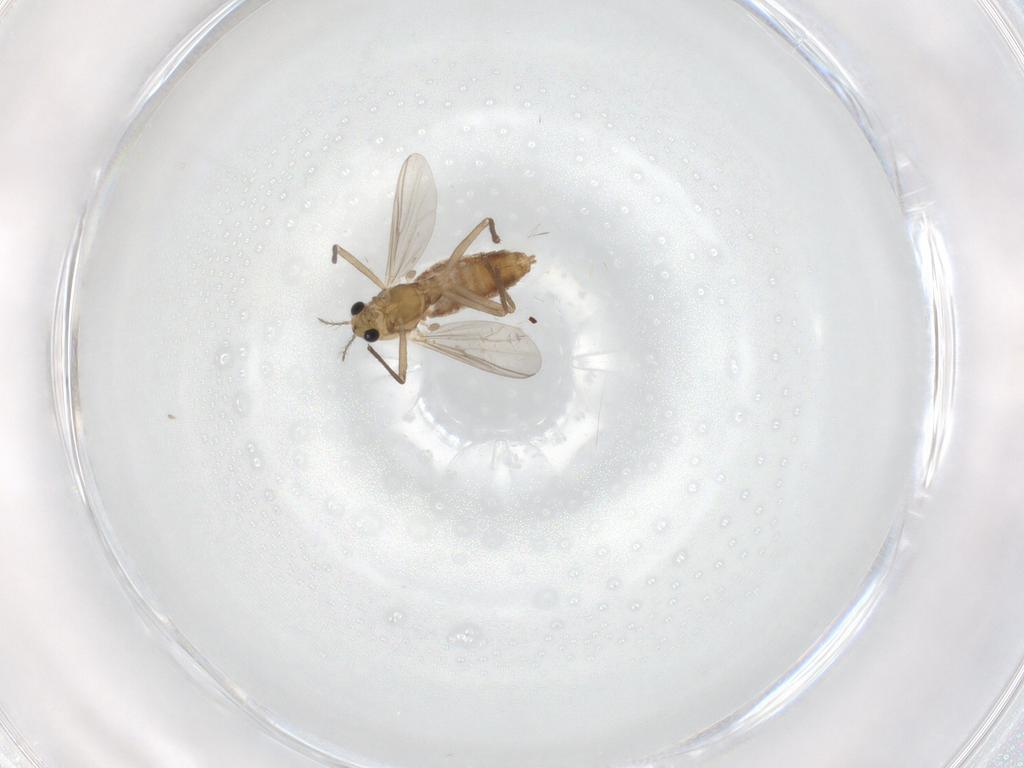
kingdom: Animalia
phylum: Arthropoda
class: Insecta
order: Diptera
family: Chironomidae
